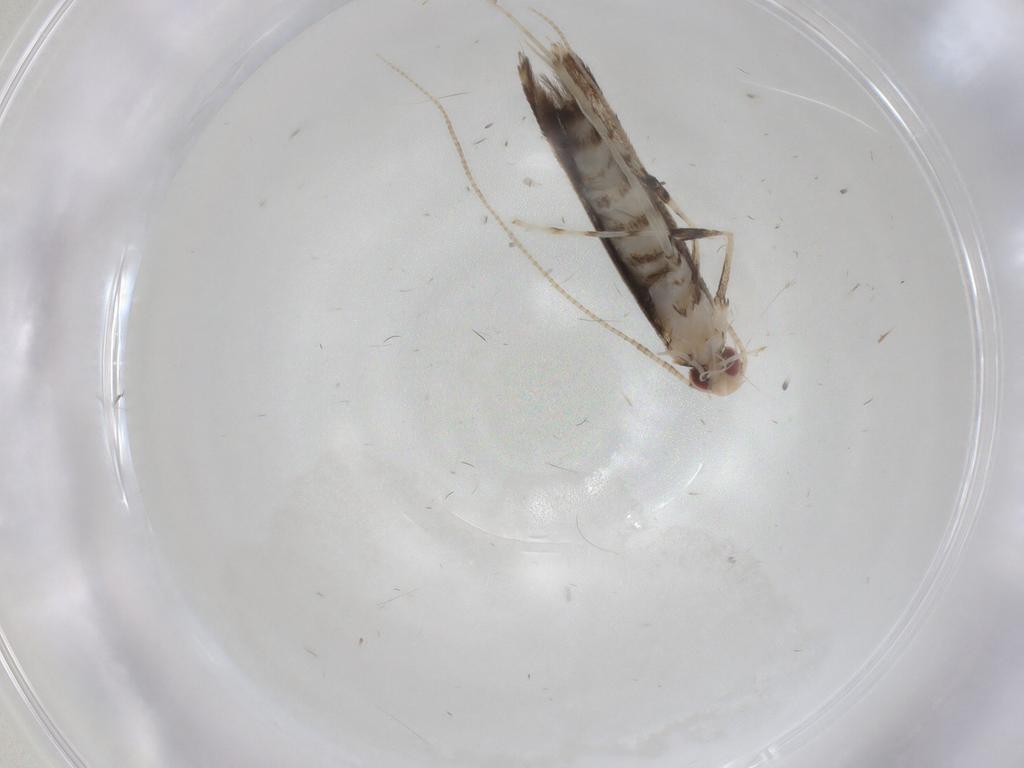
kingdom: Animalia
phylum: Arthropoda
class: Insecta
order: Lepidoptera
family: Gracillariidae
